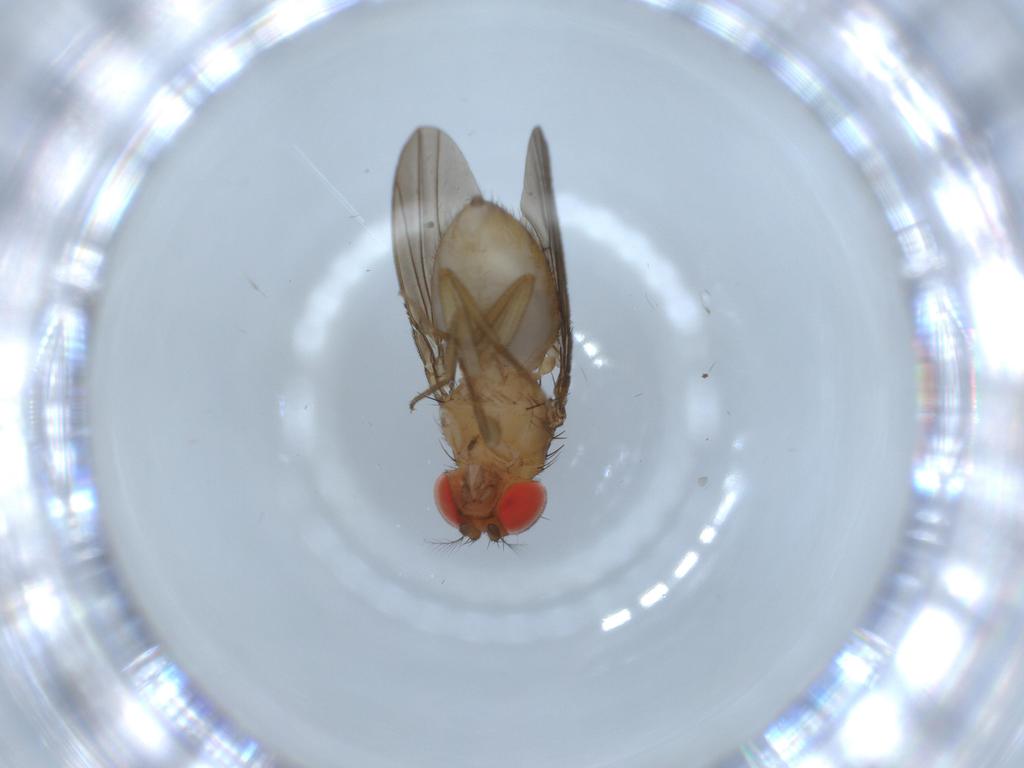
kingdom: Animalia
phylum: Arthropoda
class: Insecta
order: Diptera
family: Drosophilidae
